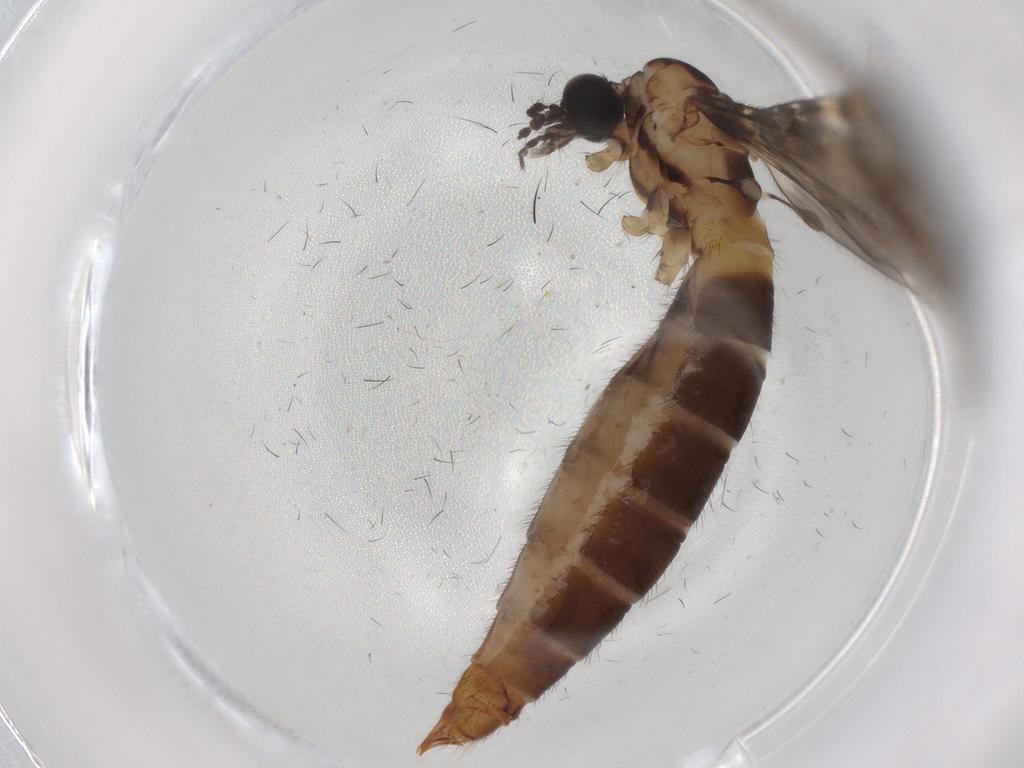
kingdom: Animalia
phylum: Arthropoda
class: Insecta
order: Diptera
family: Limoniidae
